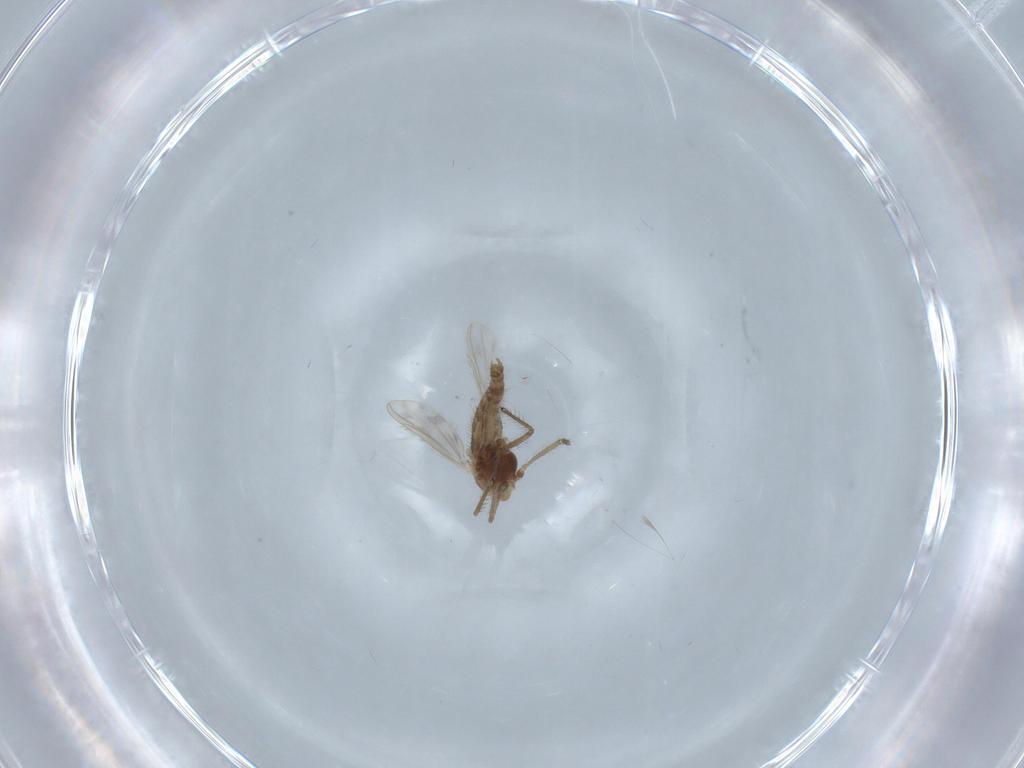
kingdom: Animalia
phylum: Arthropoda
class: Insecta
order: Diptera
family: Chironomidae
